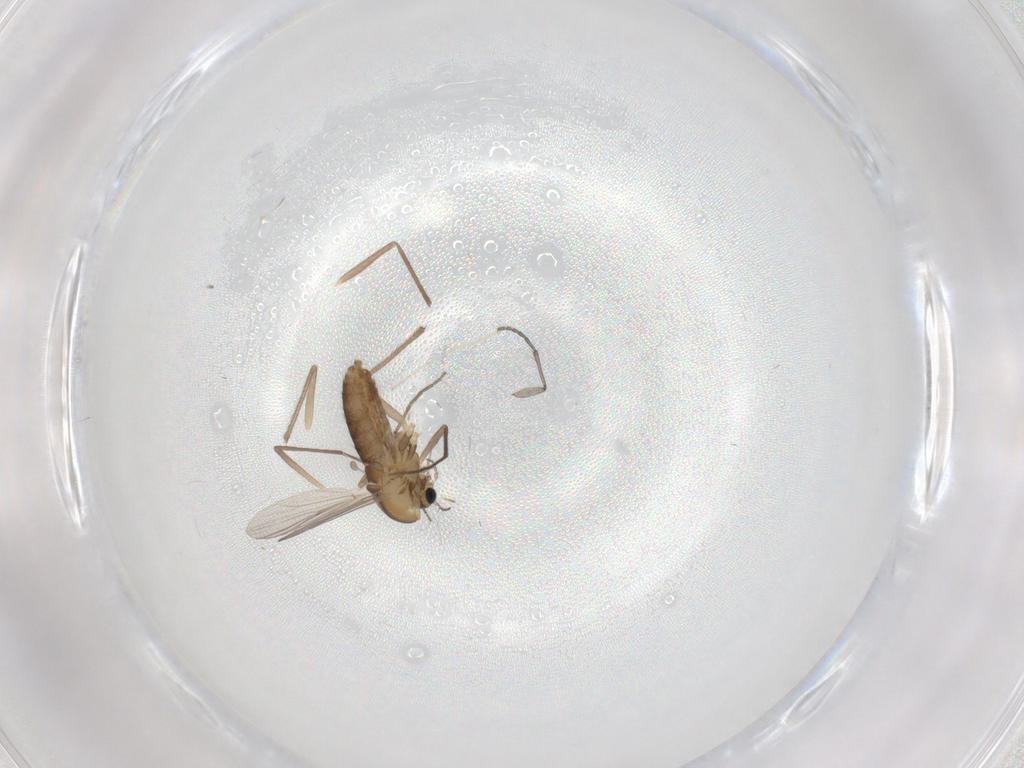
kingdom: Animalia
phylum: Arthropoda
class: Insecta
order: Diptera
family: Chironomidae
